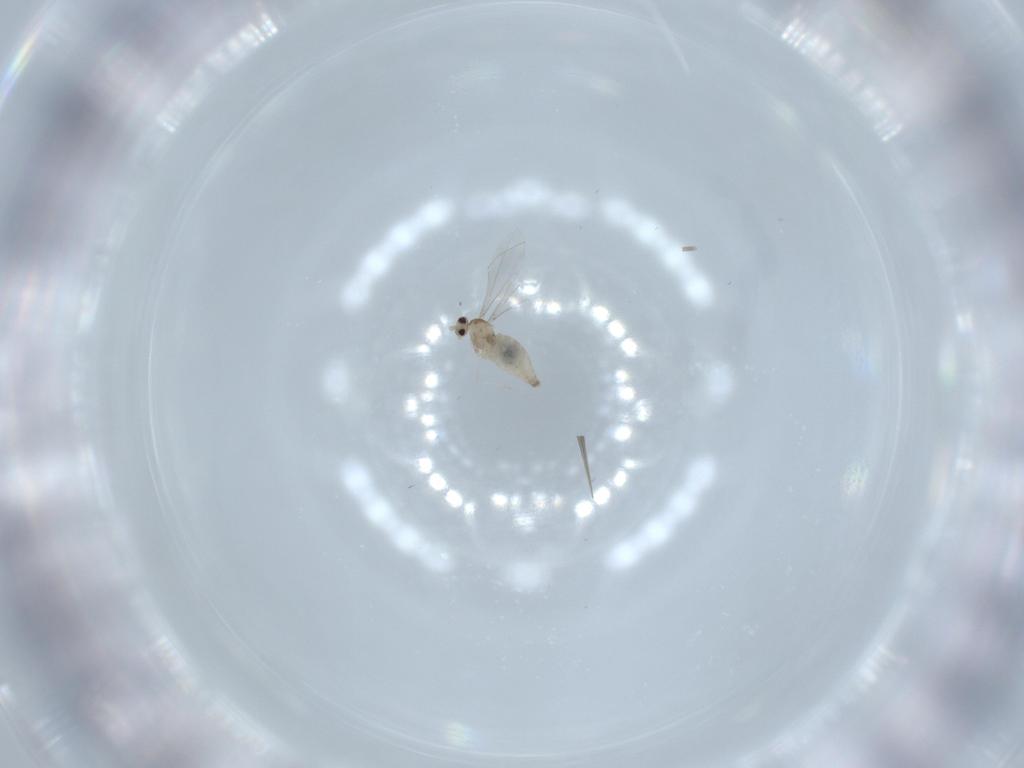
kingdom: Animalia
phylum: Arthropoda
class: Insecta
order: Diptera
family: Cecidomyiidae
